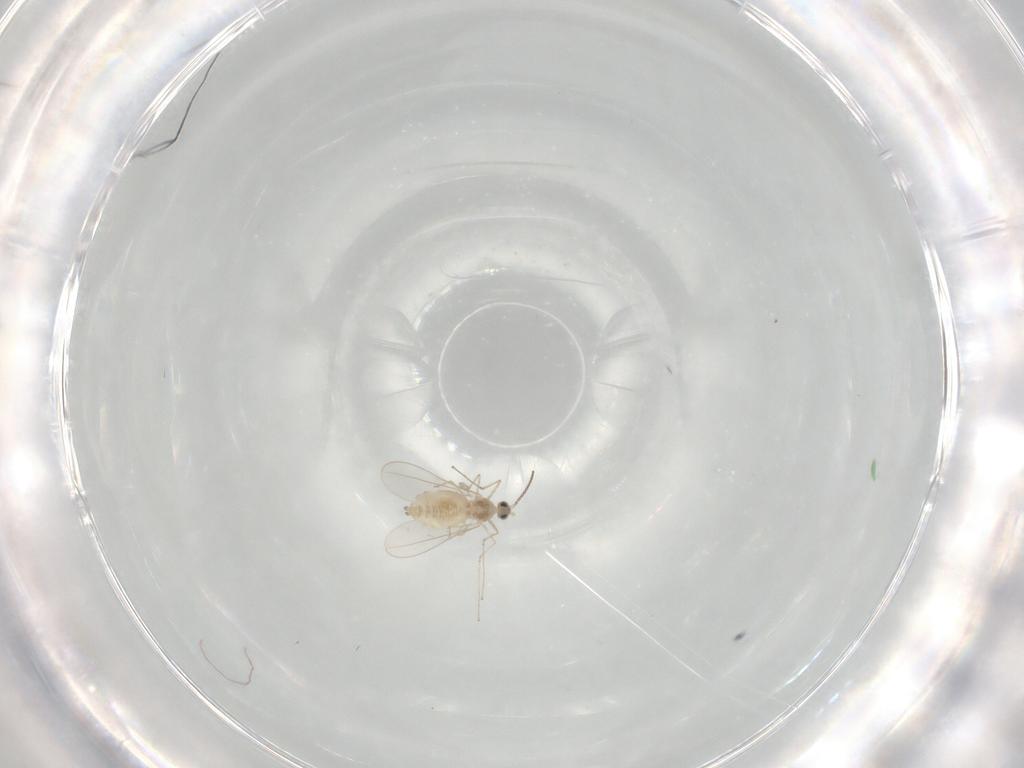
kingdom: Animalia
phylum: Arthropoda
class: Insecta
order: Diptera
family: Cecidomyiidae
